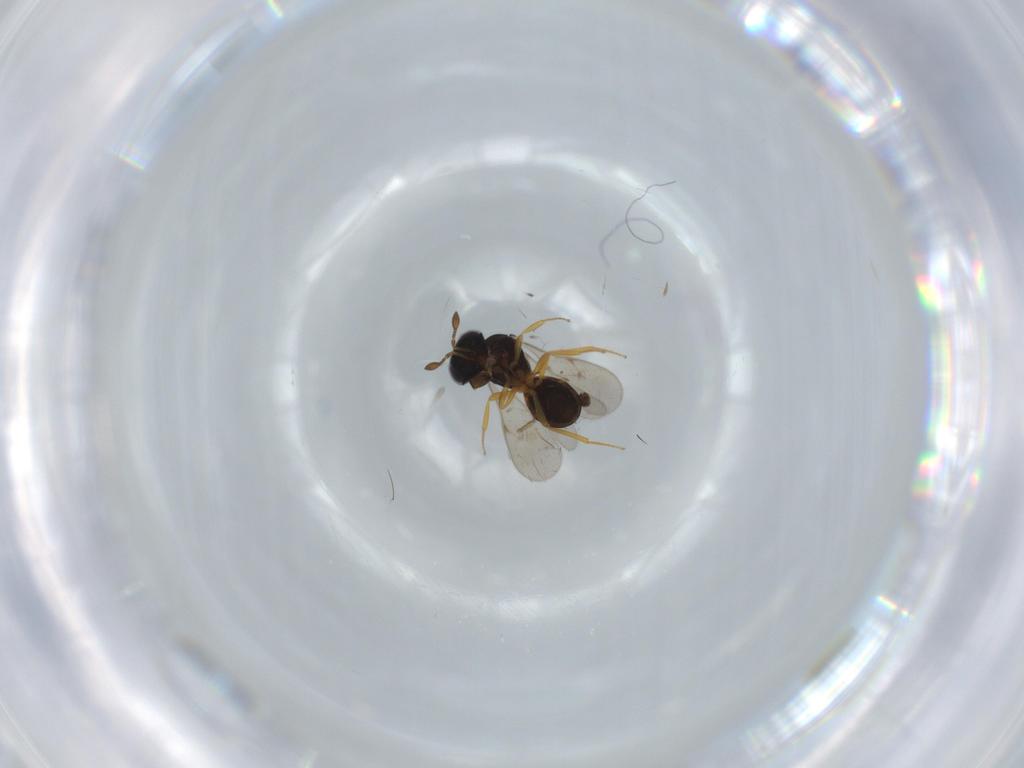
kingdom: Animalia
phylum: Arthropoda
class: Insecta
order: Hymenoptera
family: Scelionidae
